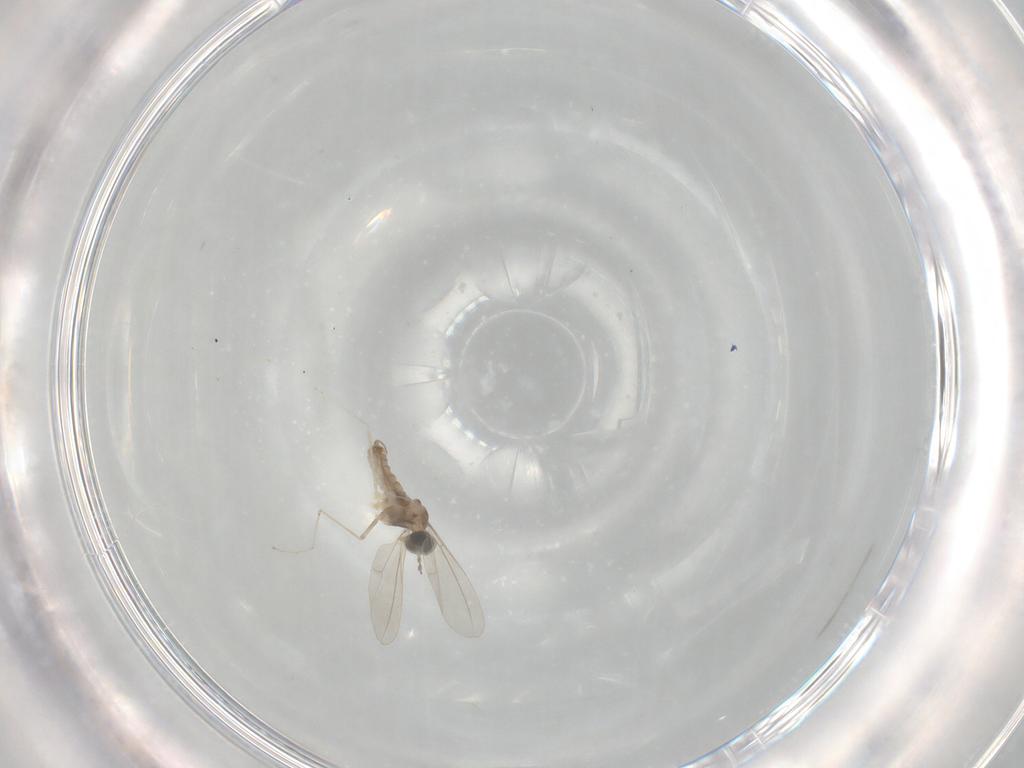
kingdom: Animalia
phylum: Arthropoda
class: Insecta
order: Diptera
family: Cecidomyiidae
